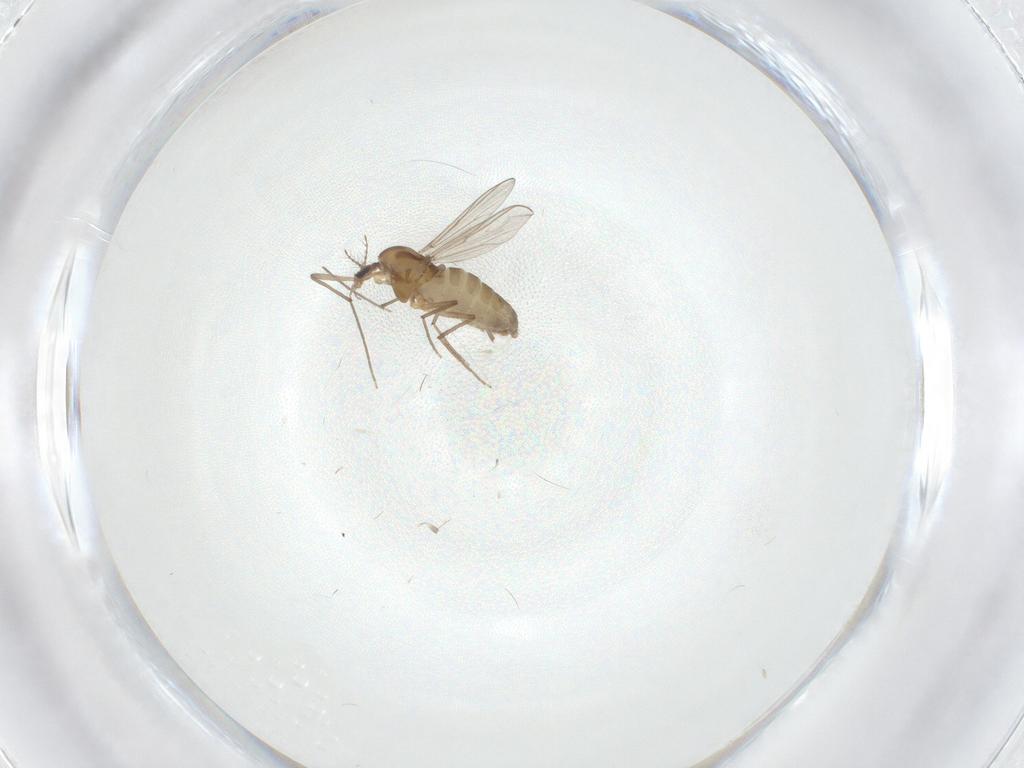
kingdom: Animalia
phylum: Arthropoda
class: Insecta
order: Diptera
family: Chironomidae
